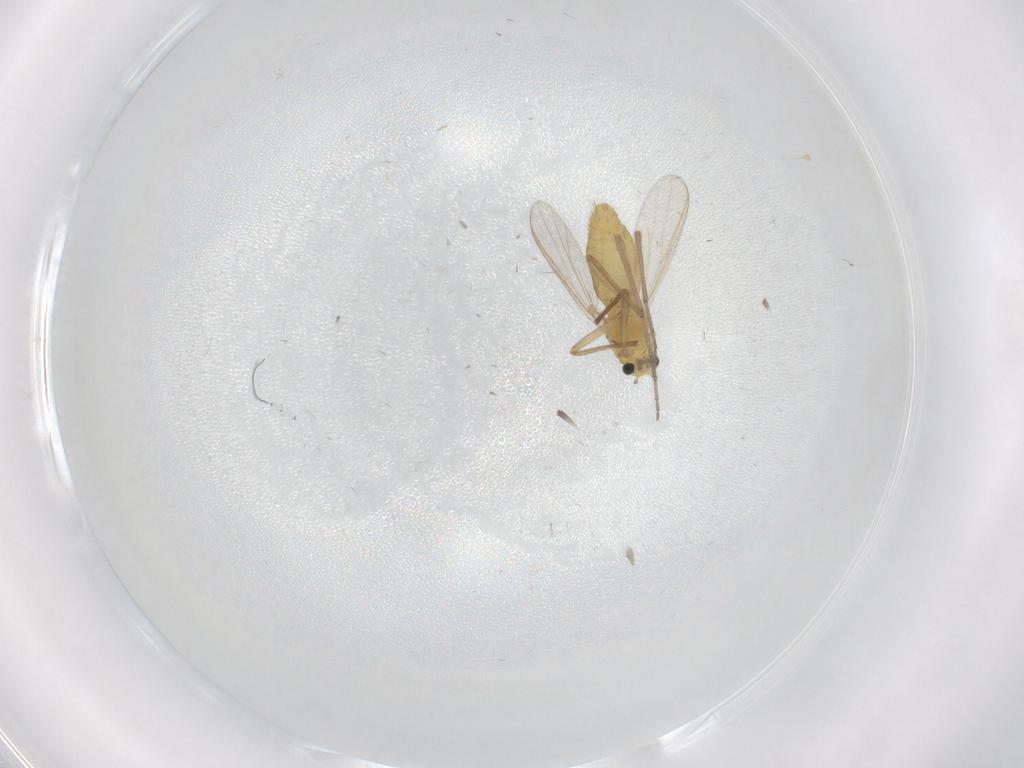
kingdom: Animalia
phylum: Arthropoda
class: Insecta
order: Diptera
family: Chironomidae
